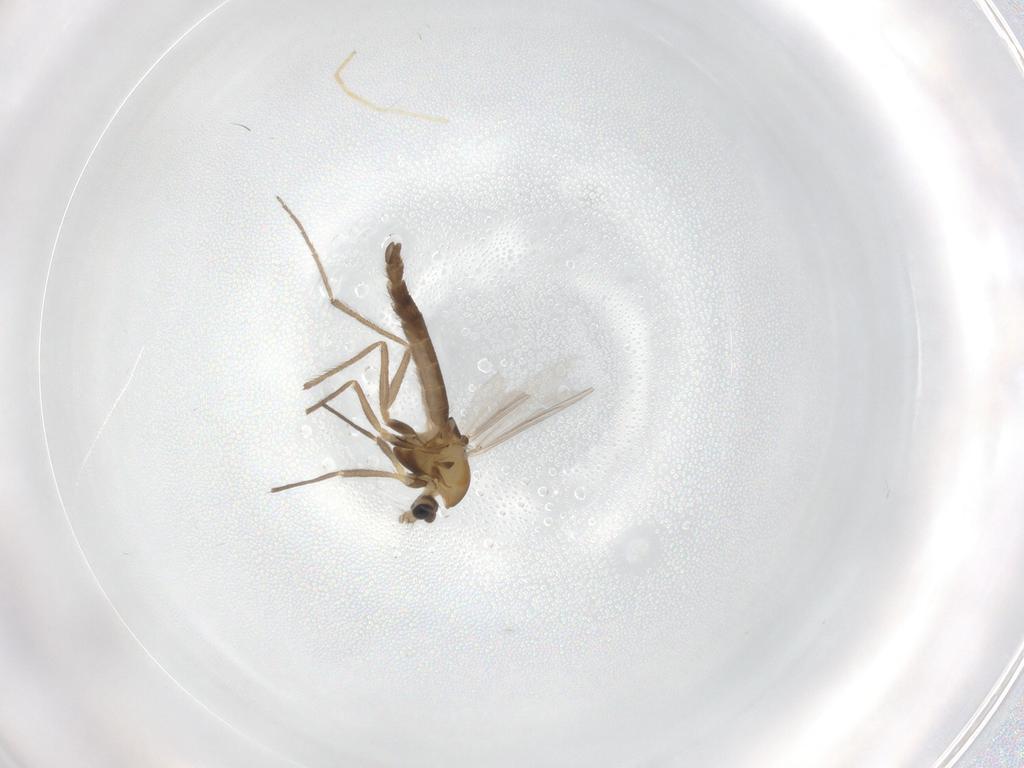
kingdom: Animalia
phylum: Arthropoda
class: Insecta
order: Diptera
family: Chironomidae
